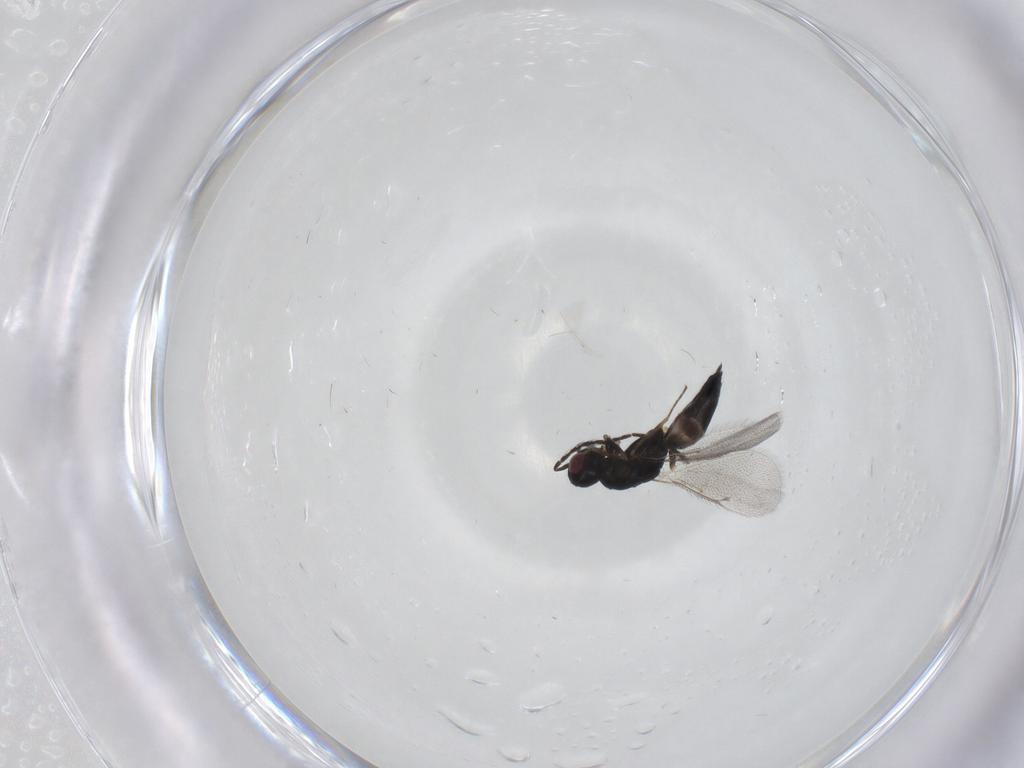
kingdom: Animalia
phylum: Arthropoda
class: Insecta
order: Hymenoptera
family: Eulophidae
